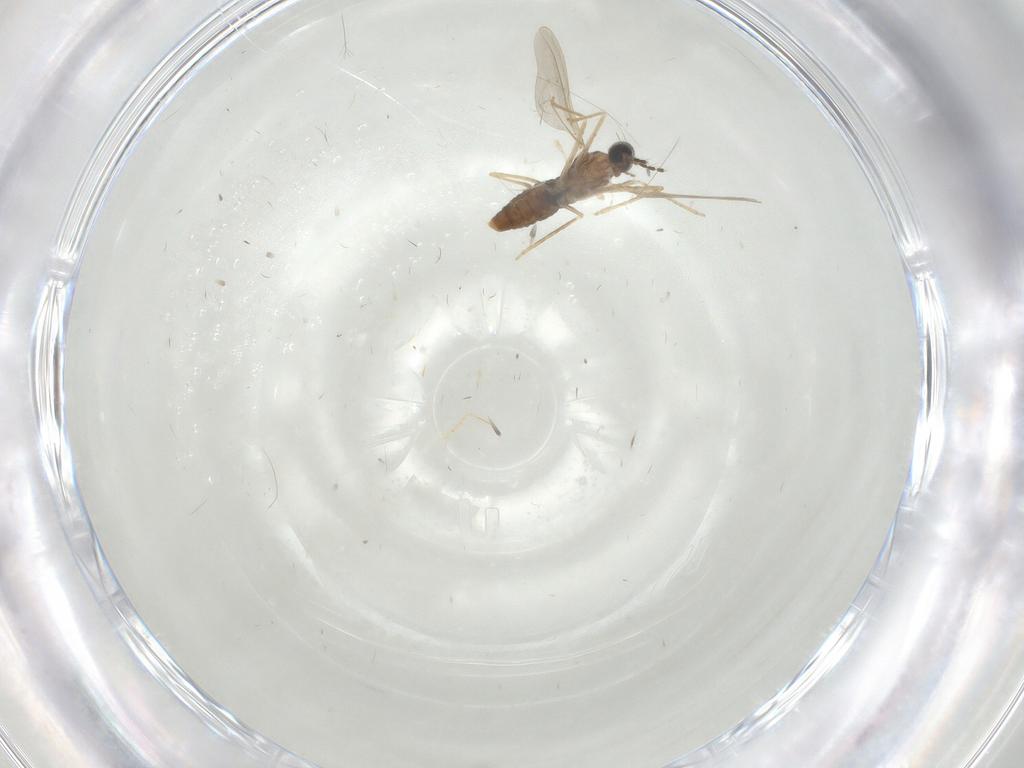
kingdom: Animalia
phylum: Arthropoda
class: Insecta
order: Diptera
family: Cecidomyiidae
